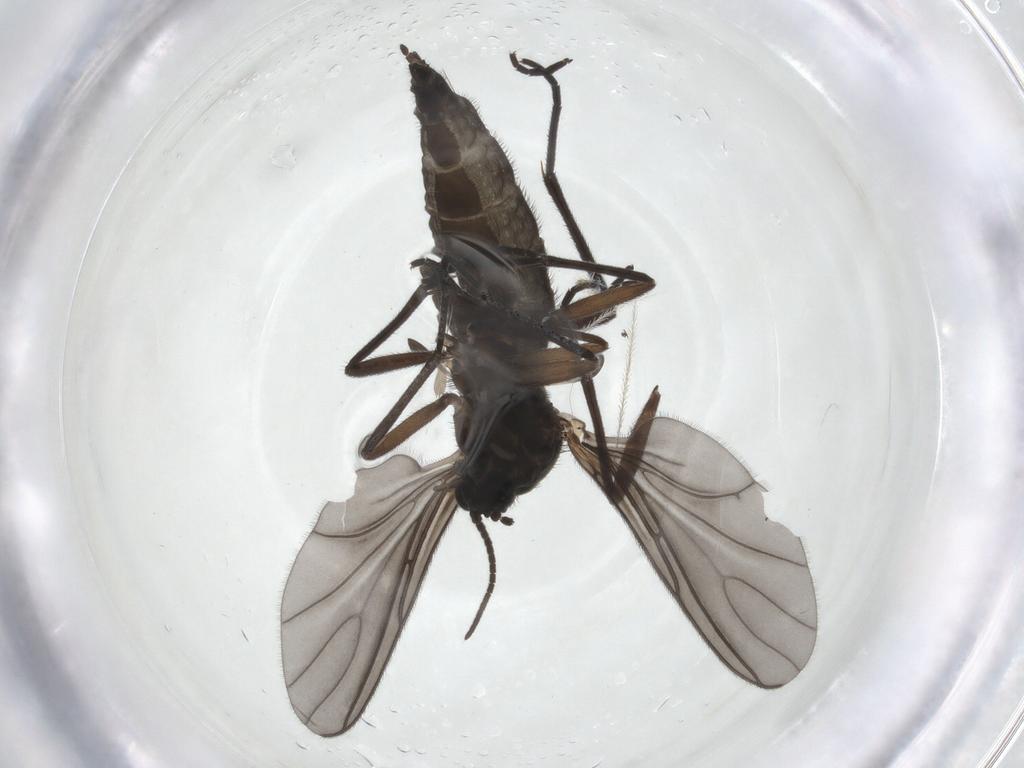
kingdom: Animalia
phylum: Arthropoda
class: Insecta
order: Diptera
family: Sciaridae
